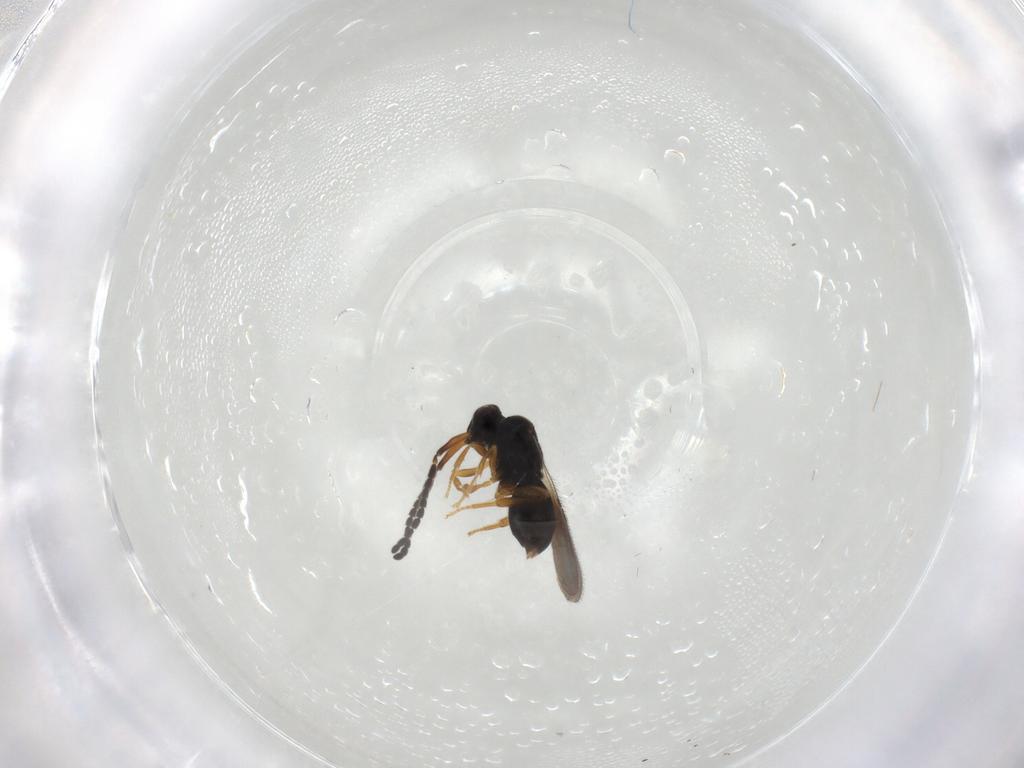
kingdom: Animalia
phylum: Arthropoda
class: Insecta
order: Hymenoptera
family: Ceraphronidae
